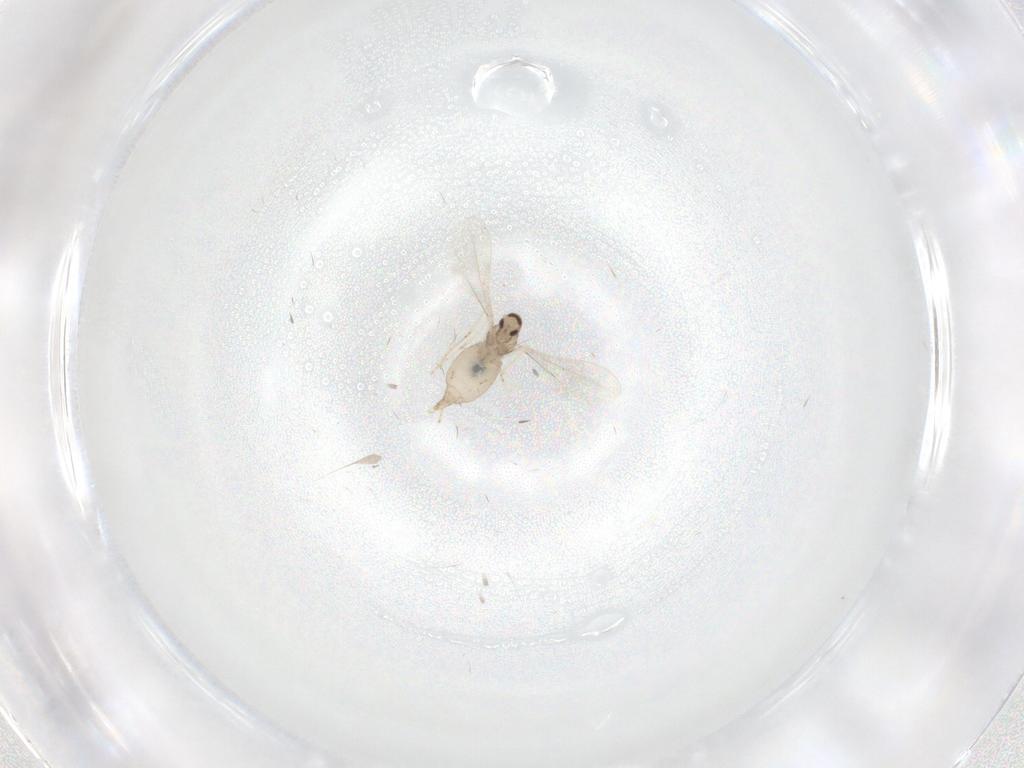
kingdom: Animalia
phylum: Arthropoda
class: Insecta
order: Diptera
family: Cecidomyiidae
